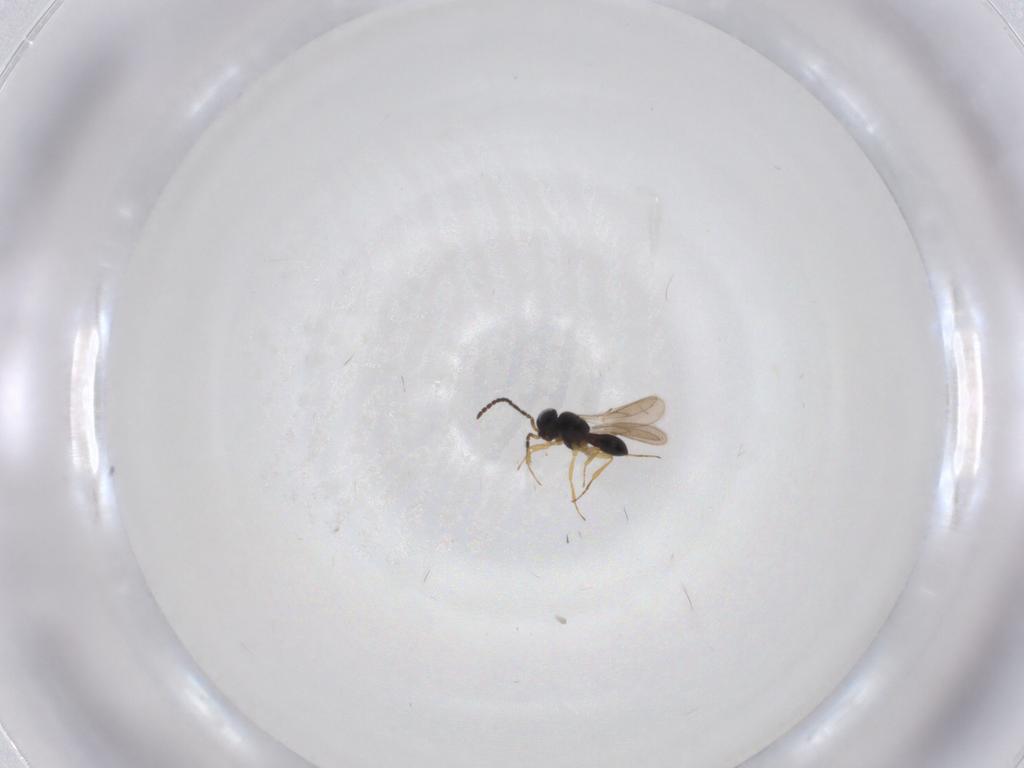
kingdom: Animalia
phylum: Arthropoda
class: Insecta
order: Hymenoptera
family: Scelionidae
